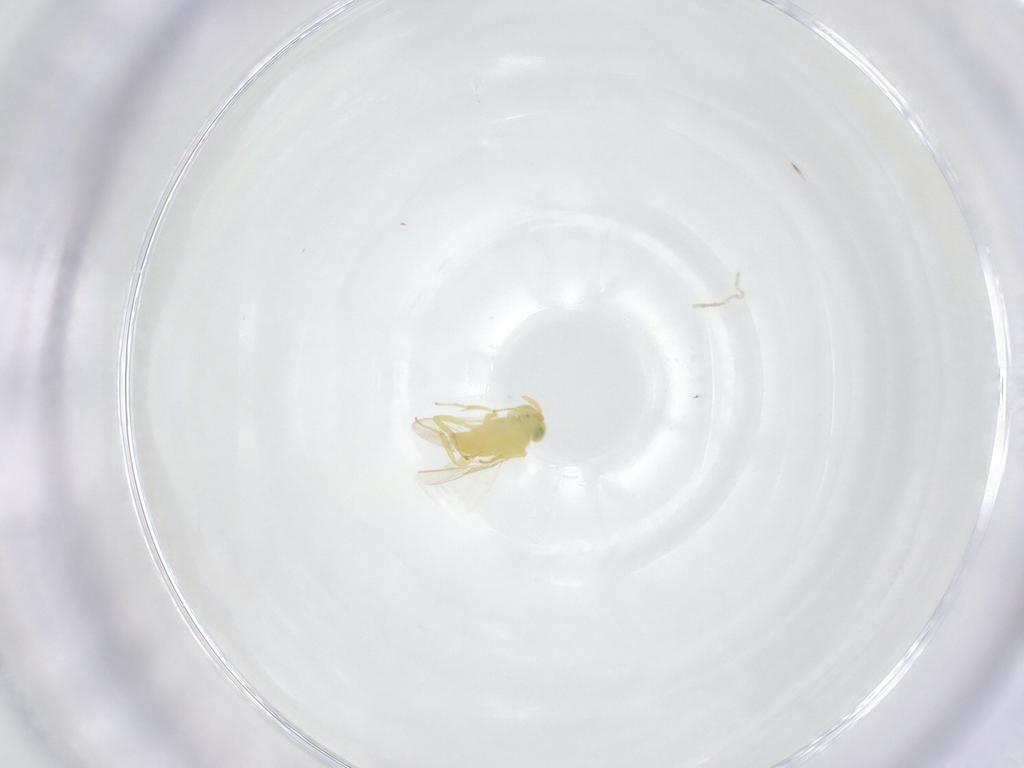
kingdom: Animalia
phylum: Arthropoda
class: Insecta
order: Hymenoptera
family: Aphelinidae
